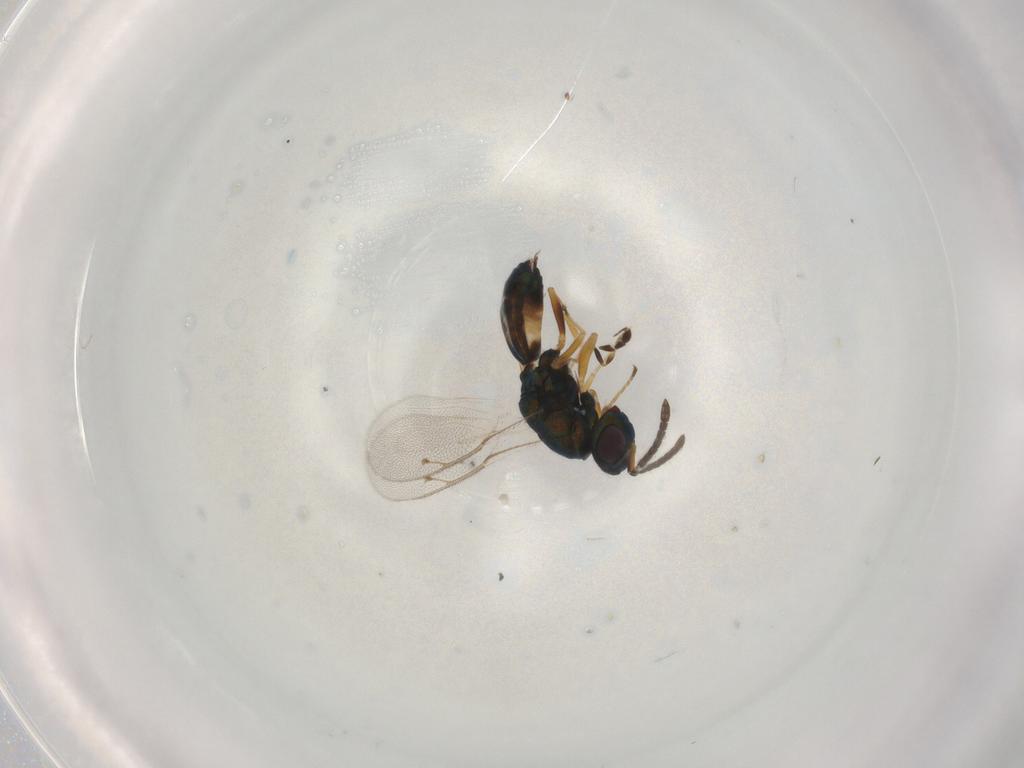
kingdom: Animalia
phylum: Arthropoda
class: Insecta
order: Hymenoptera
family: Pteromalidae
